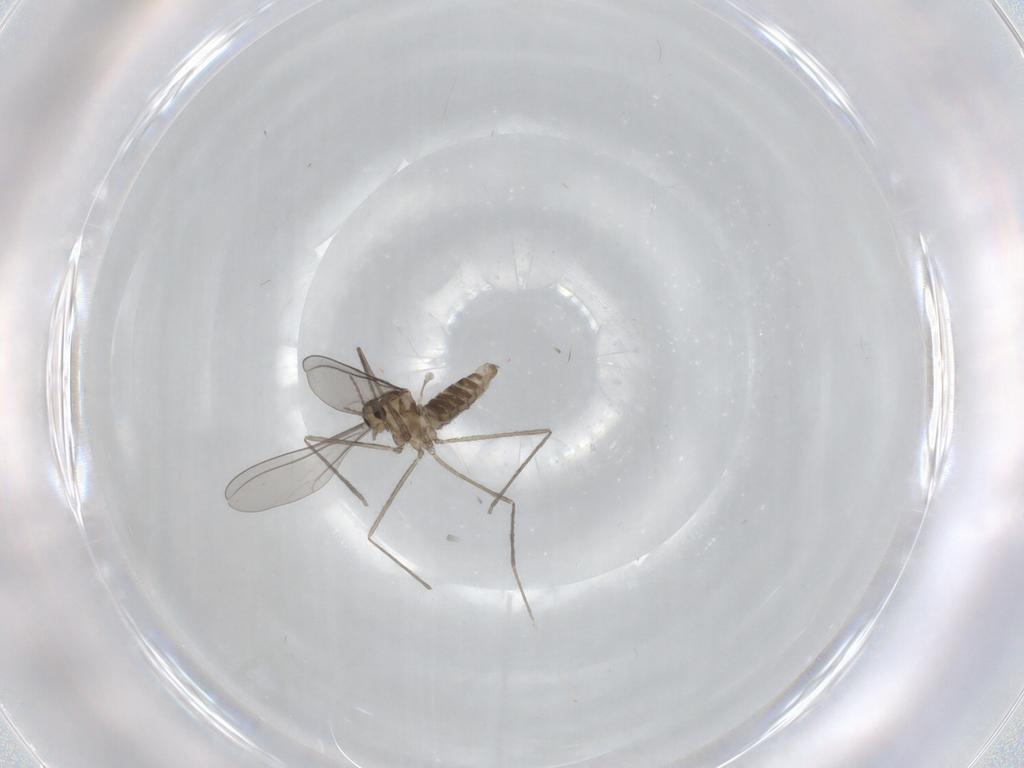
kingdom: Animalia
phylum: Arthropoda
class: Insecta
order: Diptera
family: Cecidomyiidae
